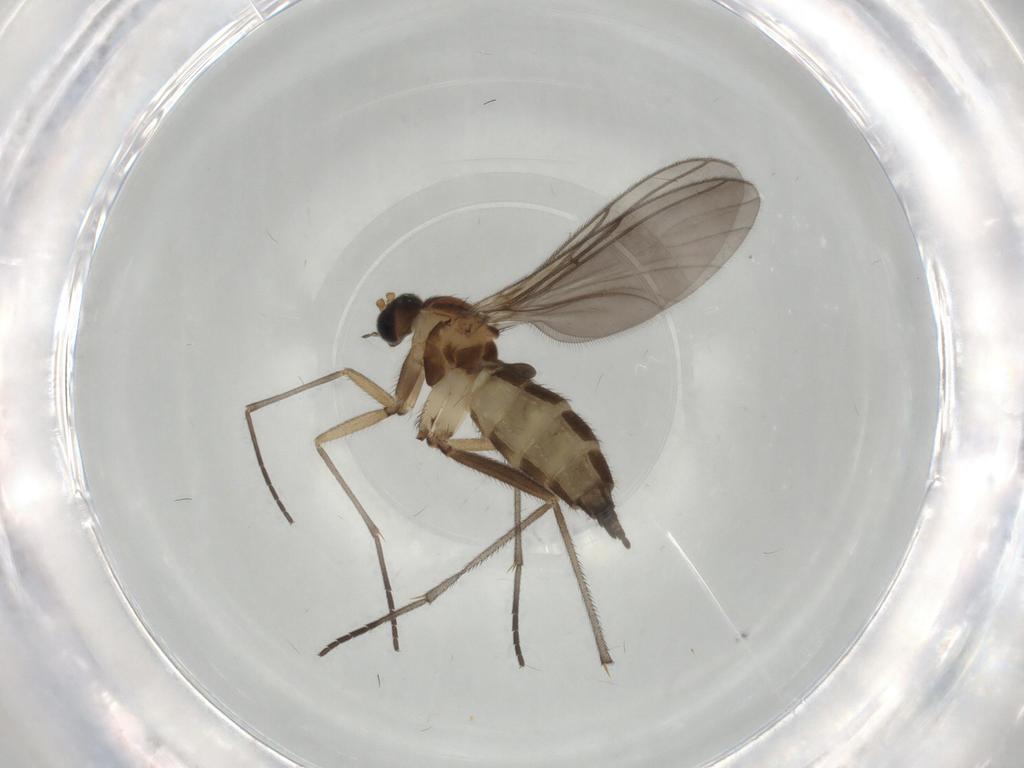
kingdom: Animalia
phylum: Arthropoda
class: Insecta
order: Diptera
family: Sciaridae
